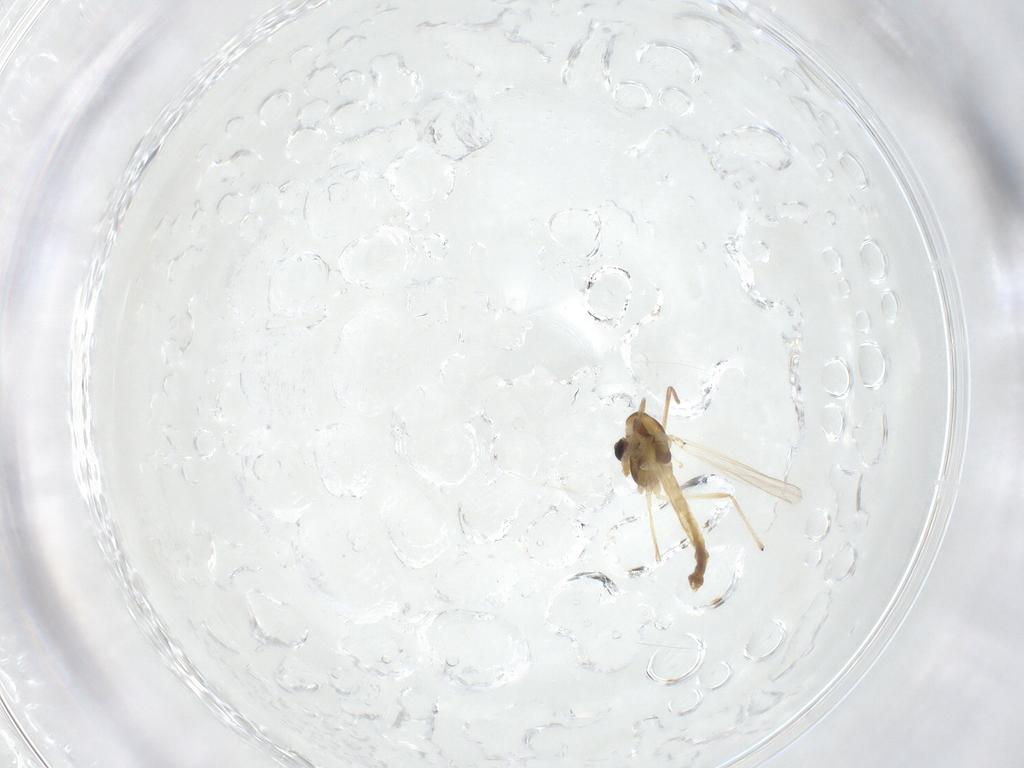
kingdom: Animalia
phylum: Arthropoda
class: Insecta
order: Diptera
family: Chironomidae
